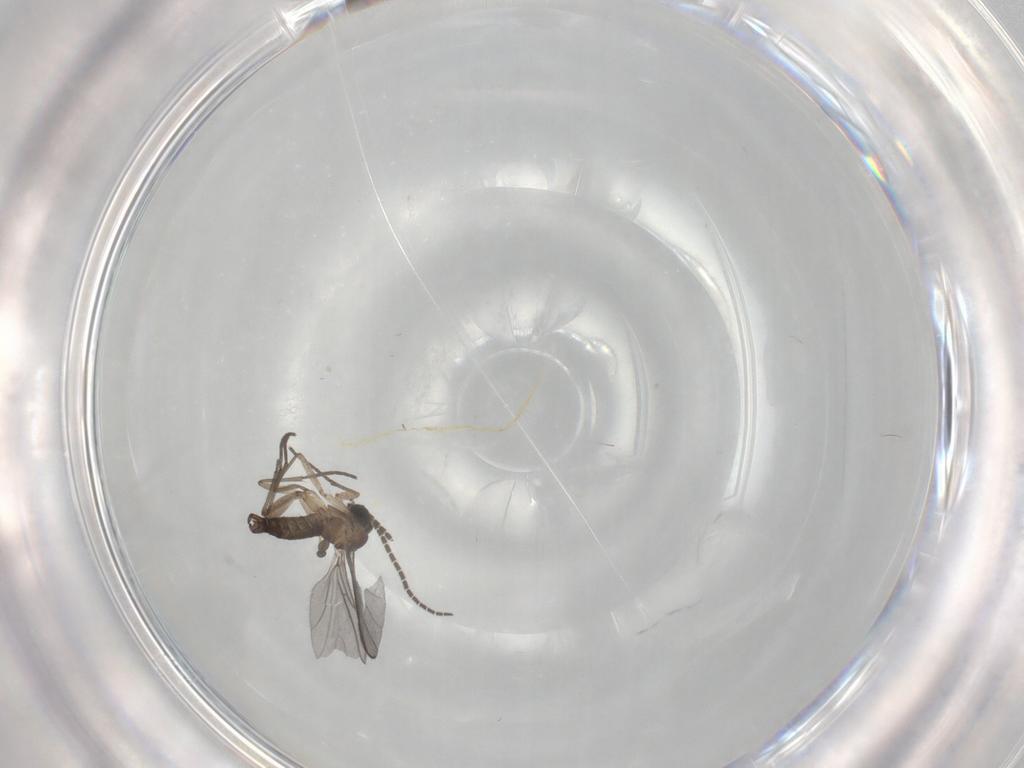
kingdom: Animalia
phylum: Arthropoda
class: Insecta
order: Diptera
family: Sciaridae
